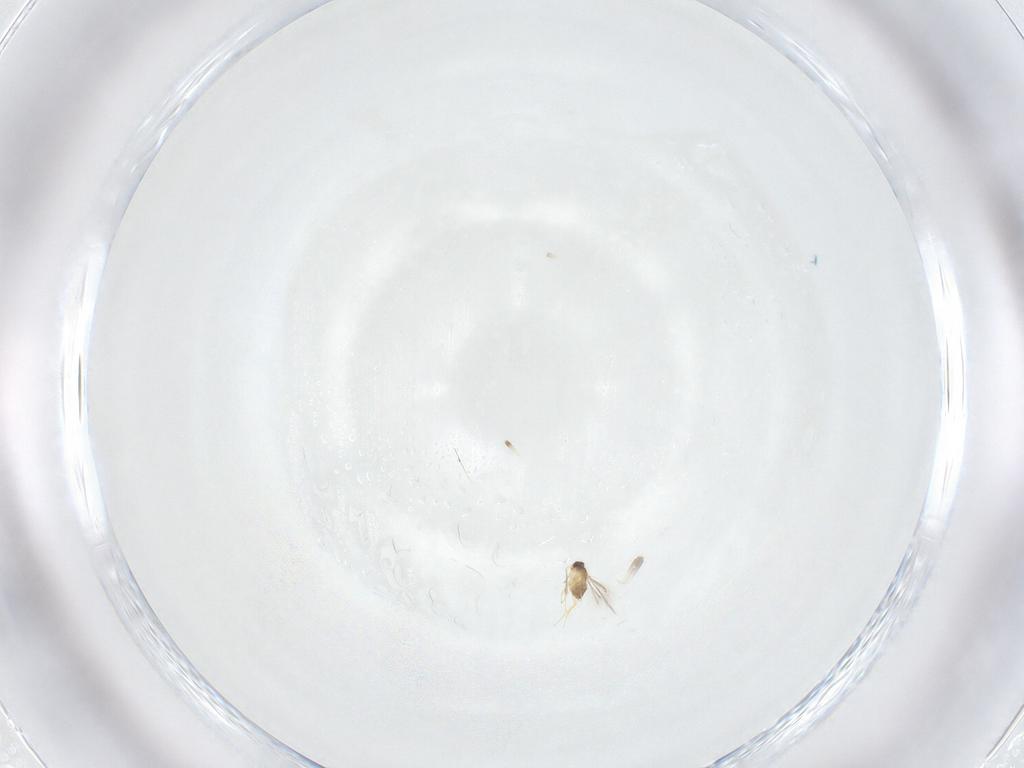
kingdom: Animalia
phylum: Arthropoda
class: Insecta
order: Hymenoptera
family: Mymaridae
